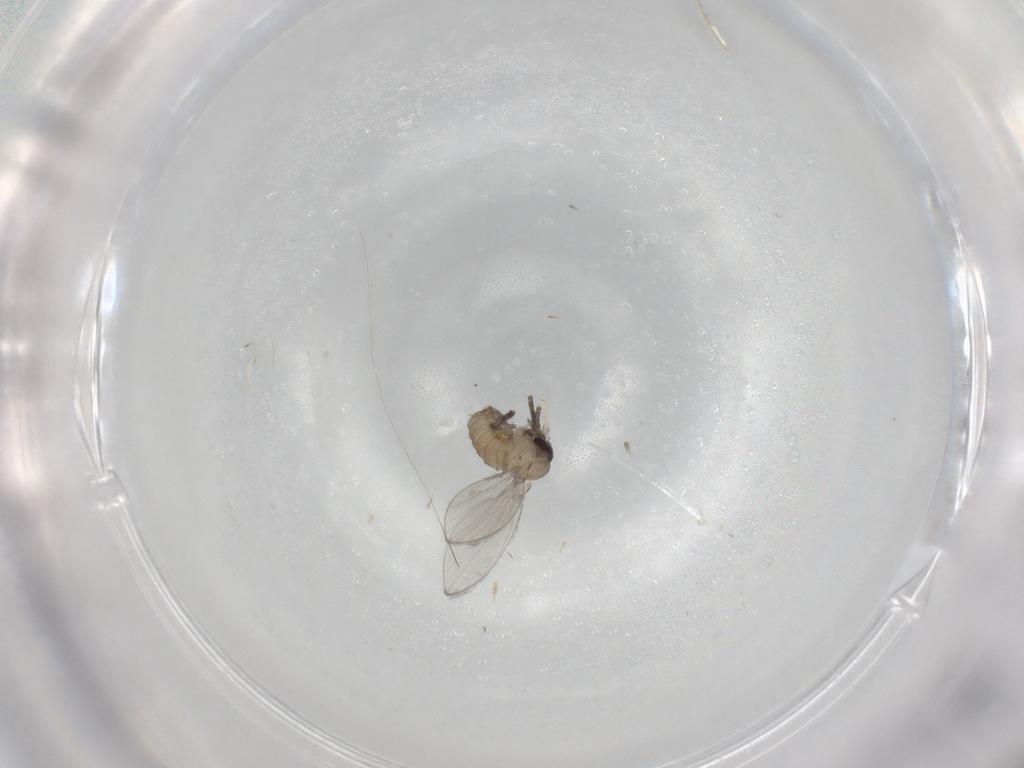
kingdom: Animalia
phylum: Arthropoda
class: Insecta
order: Diptera
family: Psychodidae
